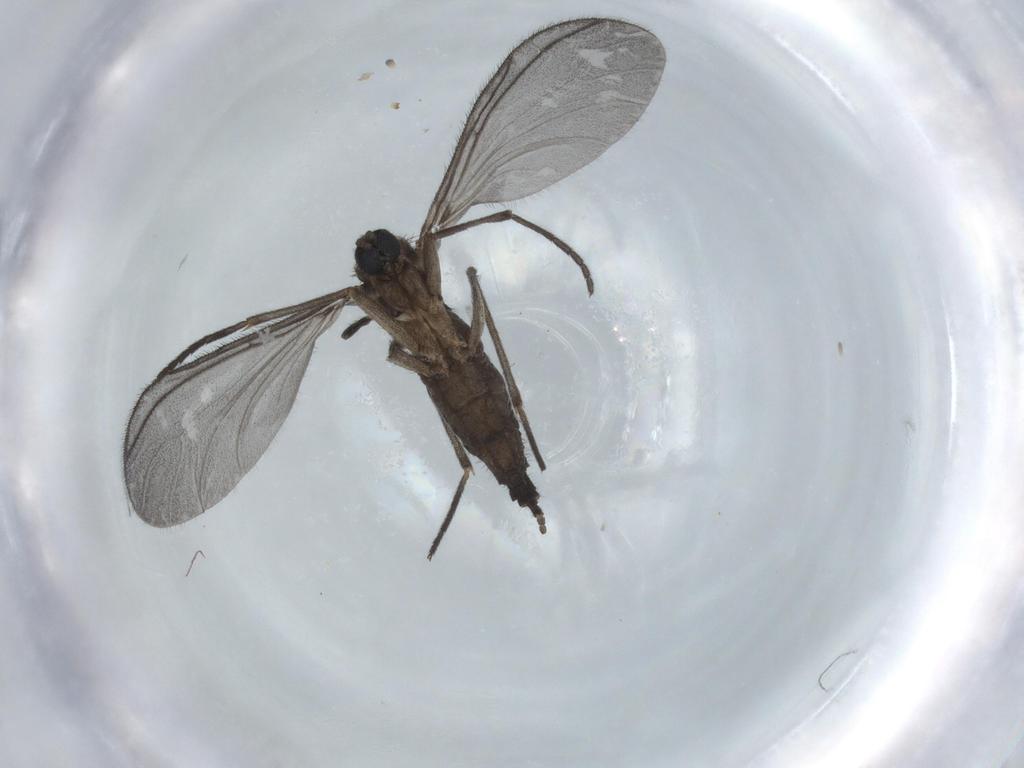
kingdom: Animalia
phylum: Arthropoda
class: Insecta
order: Diptera
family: Sciaridae
